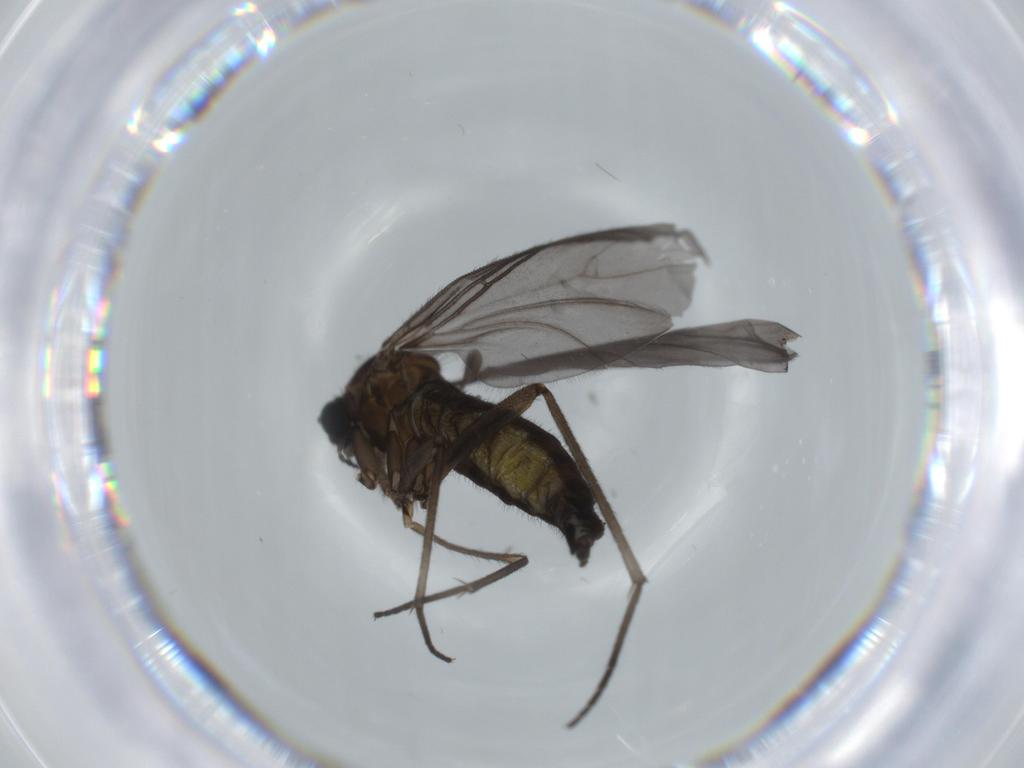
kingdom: Animalia
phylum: Arthropoda
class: Insecta
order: Diptera
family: Sciaridae
